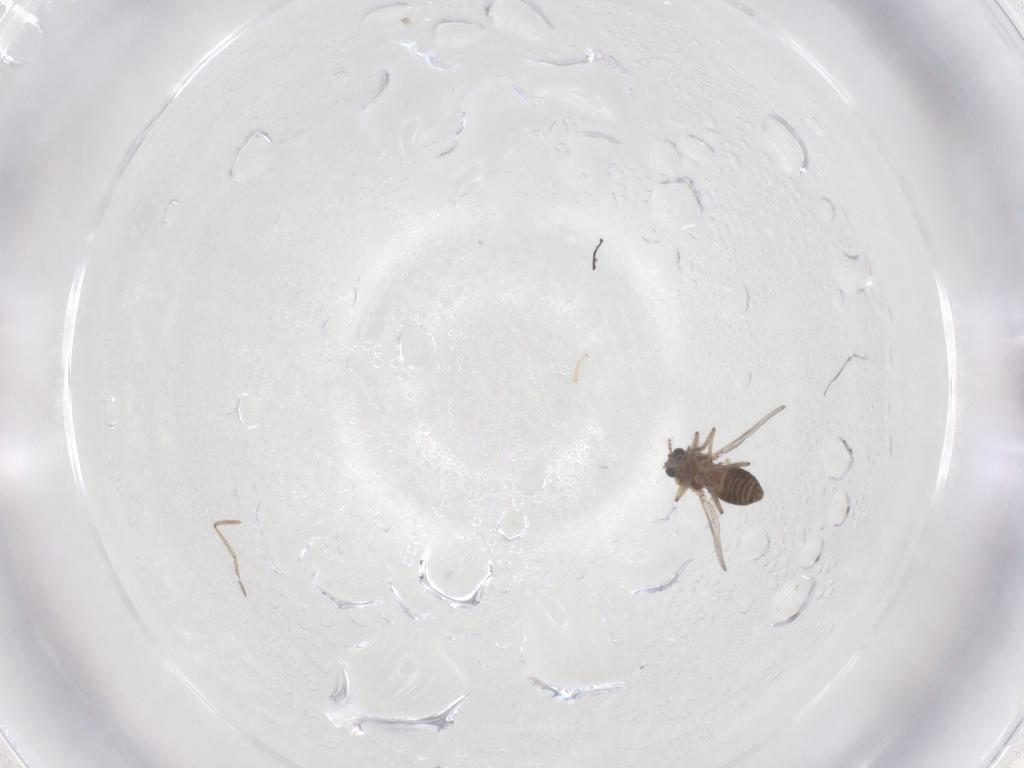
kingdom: Animalia
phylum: Arthropoda
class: Insecta
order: Diptera
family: Ceratopogonidae
